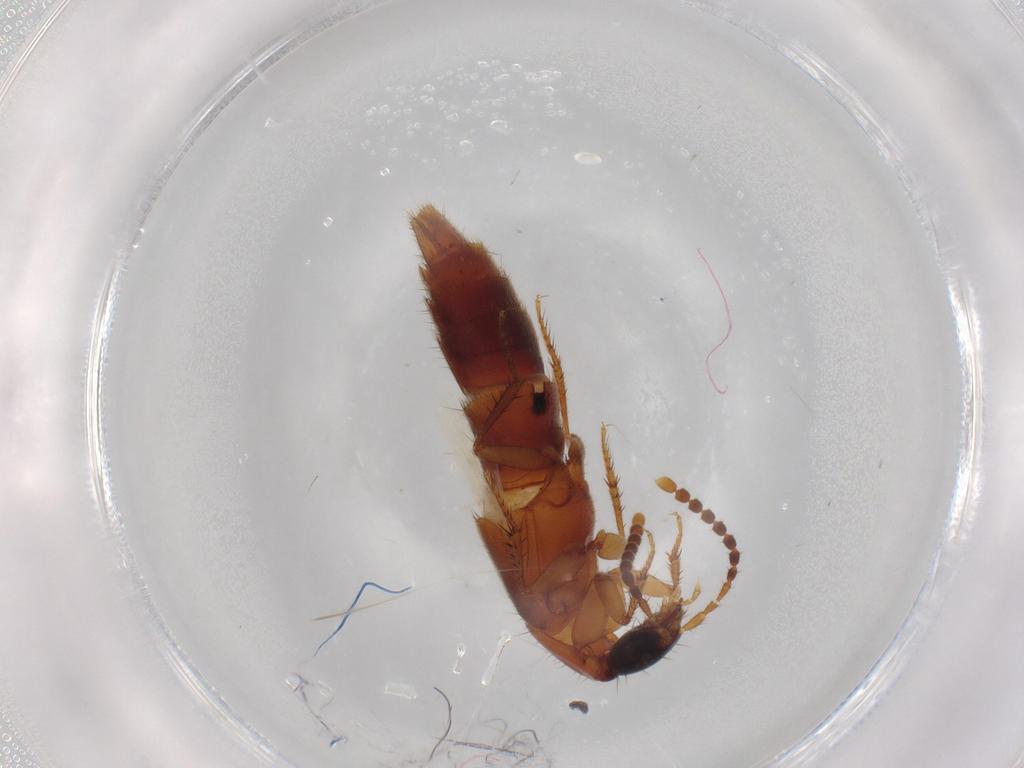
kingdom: Animalia
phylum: Arthropoda
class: Insecta
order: Coleoptera
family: Staphylinidae
